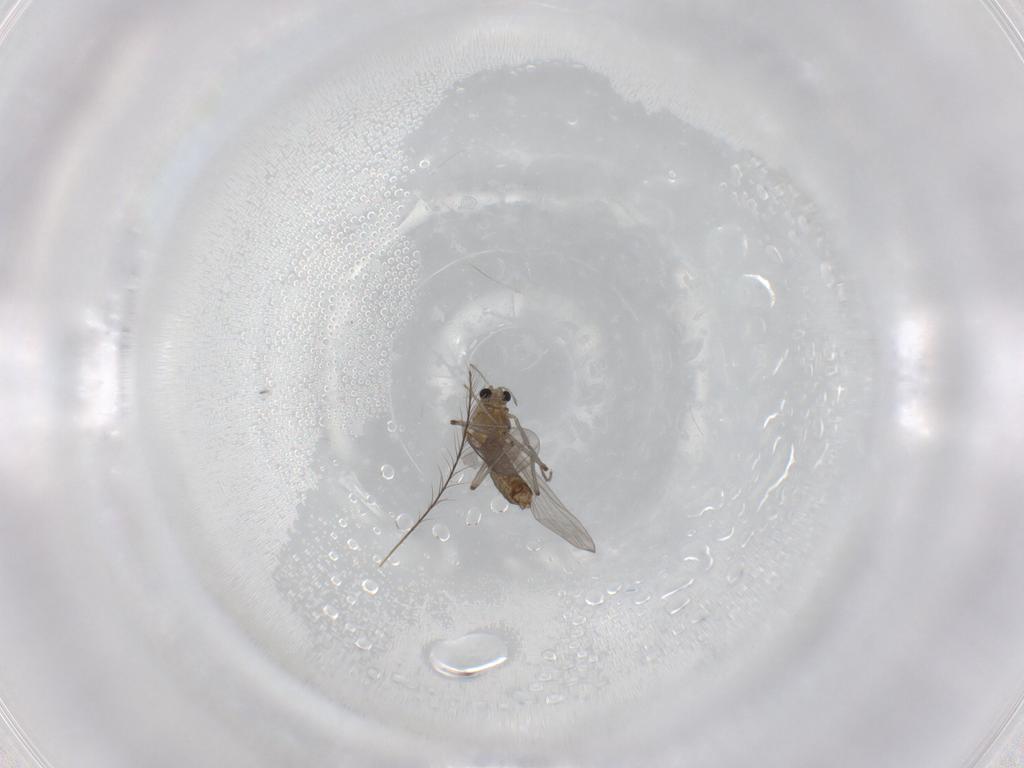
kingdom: Animalia
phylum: Arthropoda
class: Insecta
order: Diptera
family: Chironomidae
